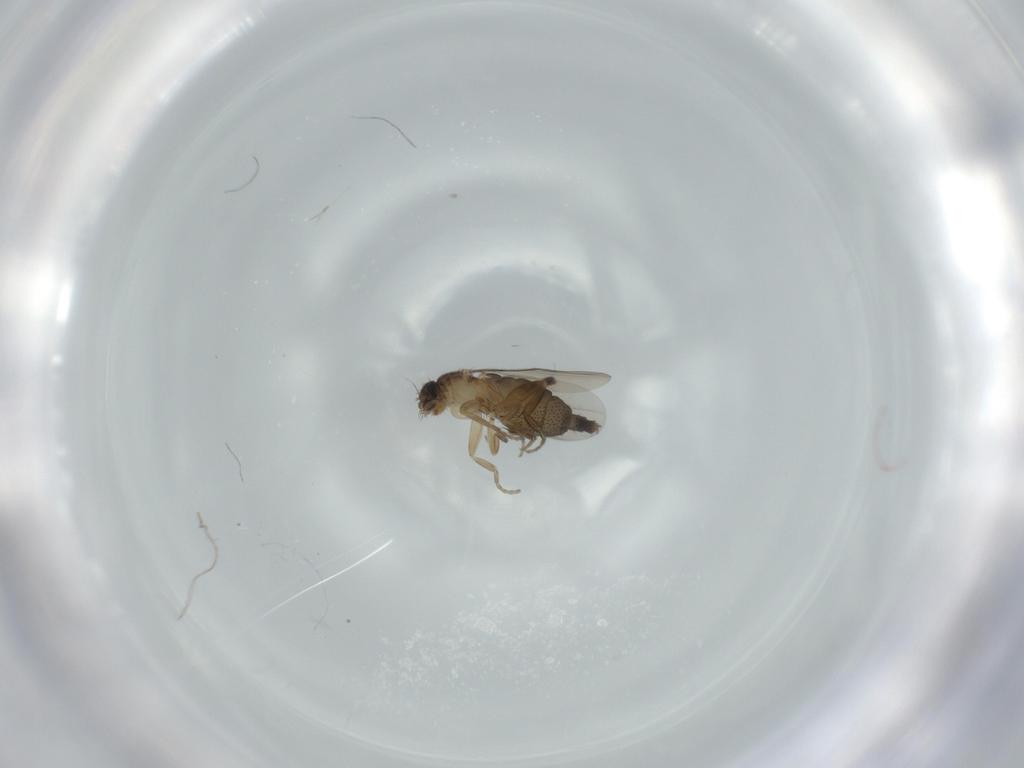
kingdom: Animalia
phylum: Arthropoda
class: Insecta
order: Diptera
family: Phoridae
